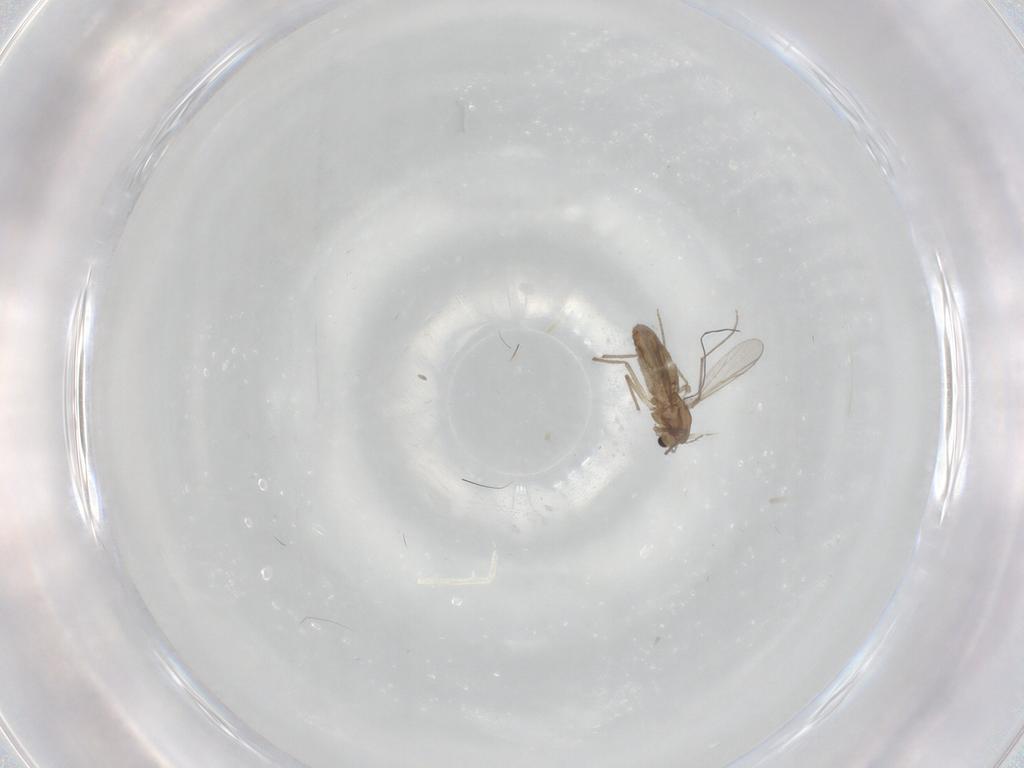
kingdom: Animalia
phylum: Arthropoda
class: Insecta
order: Diptera
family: Chironomidae
